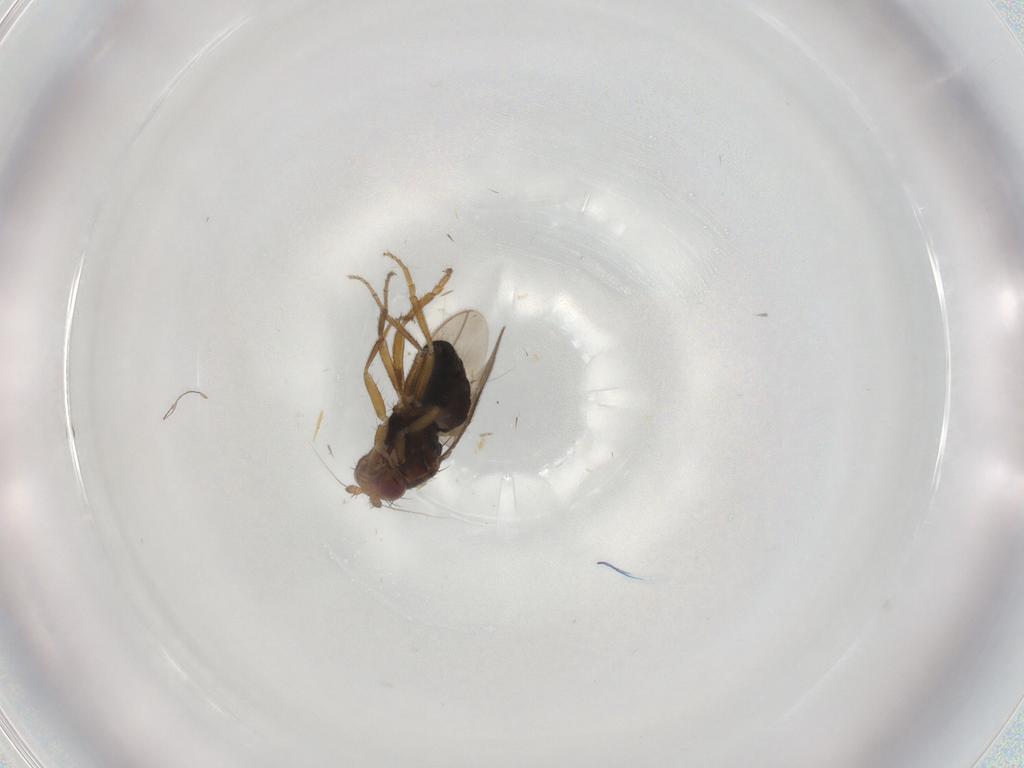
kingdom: Animalia
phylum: Arthropoda
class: Insecta
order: Diptera
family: Sphaeroceridae
